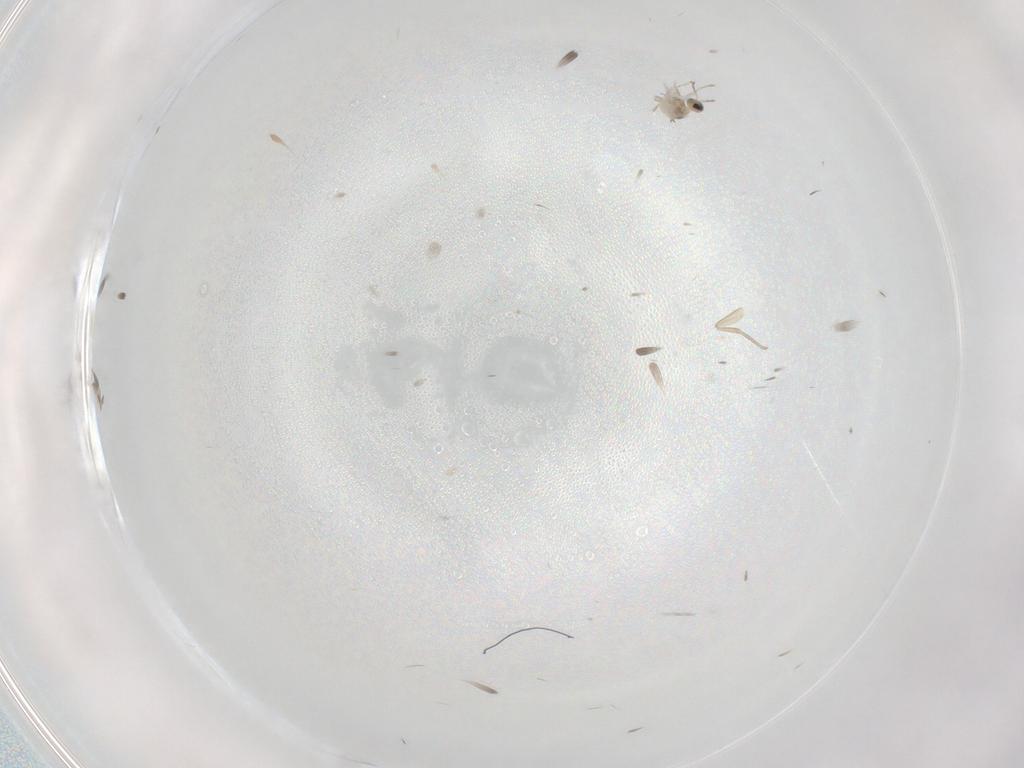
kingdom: Animalia
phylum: Arthropoda
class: Insecta
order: Diptera
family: Cecidomyiidae
